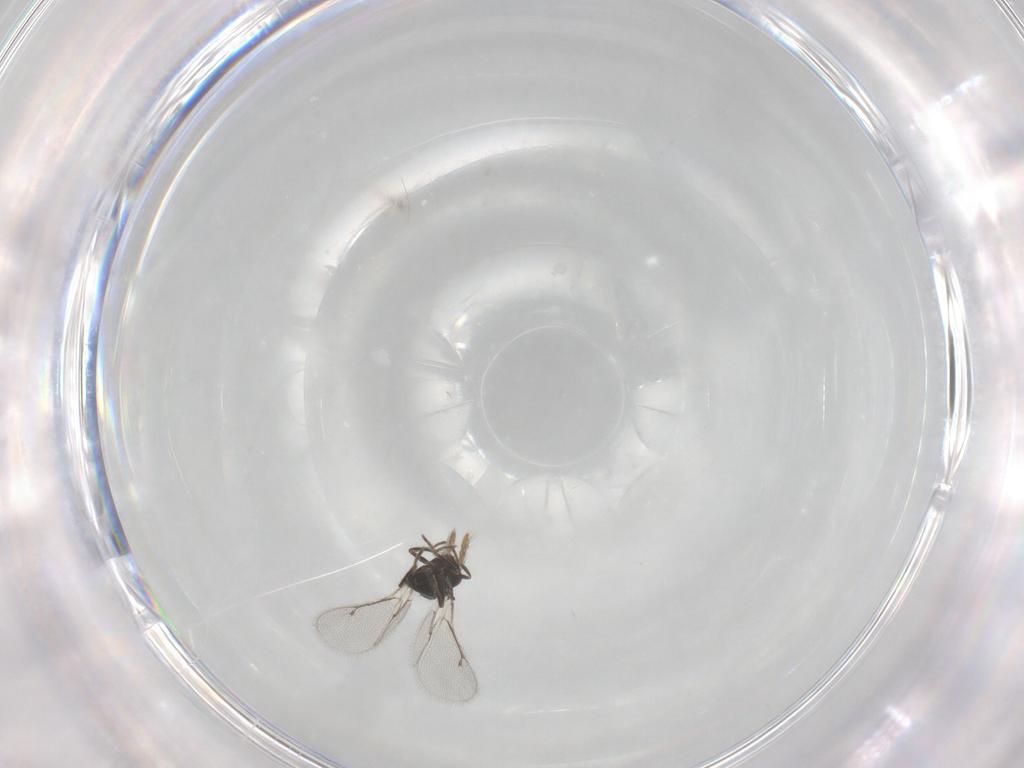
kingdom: Animalia
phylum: Arthropoda
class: Insecta
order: Hymenoptera
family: Eulophidae
